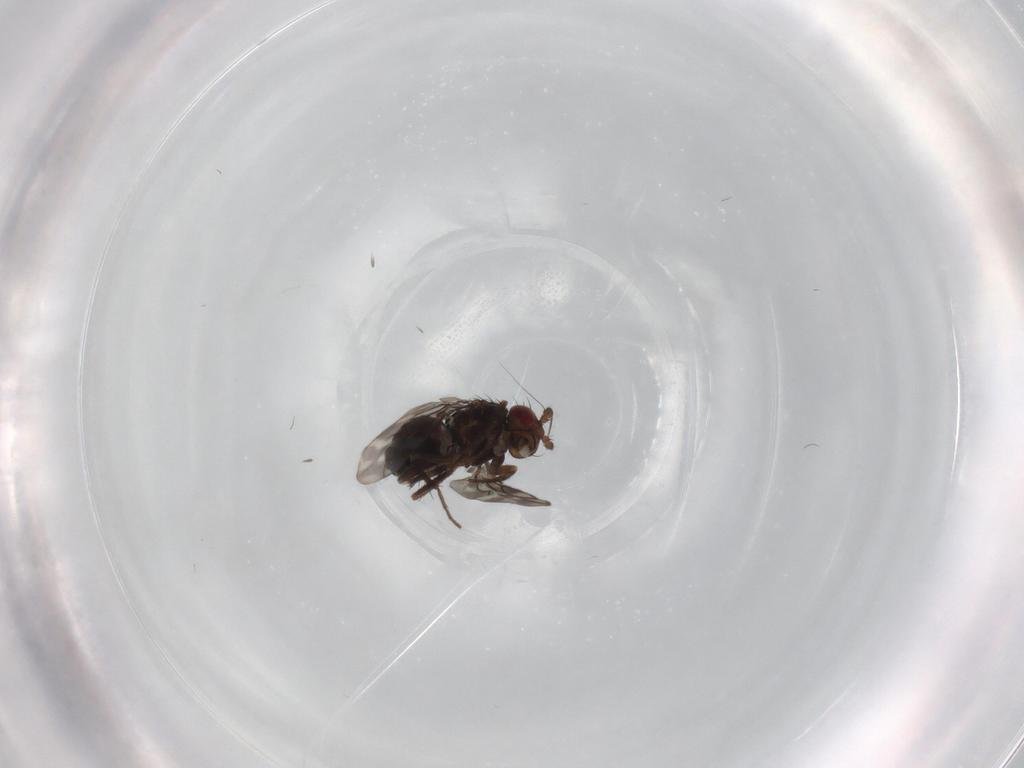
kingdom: Animalia
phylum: Arthropoda
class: Insecta
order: Diptera
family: Sphaeroceridae
